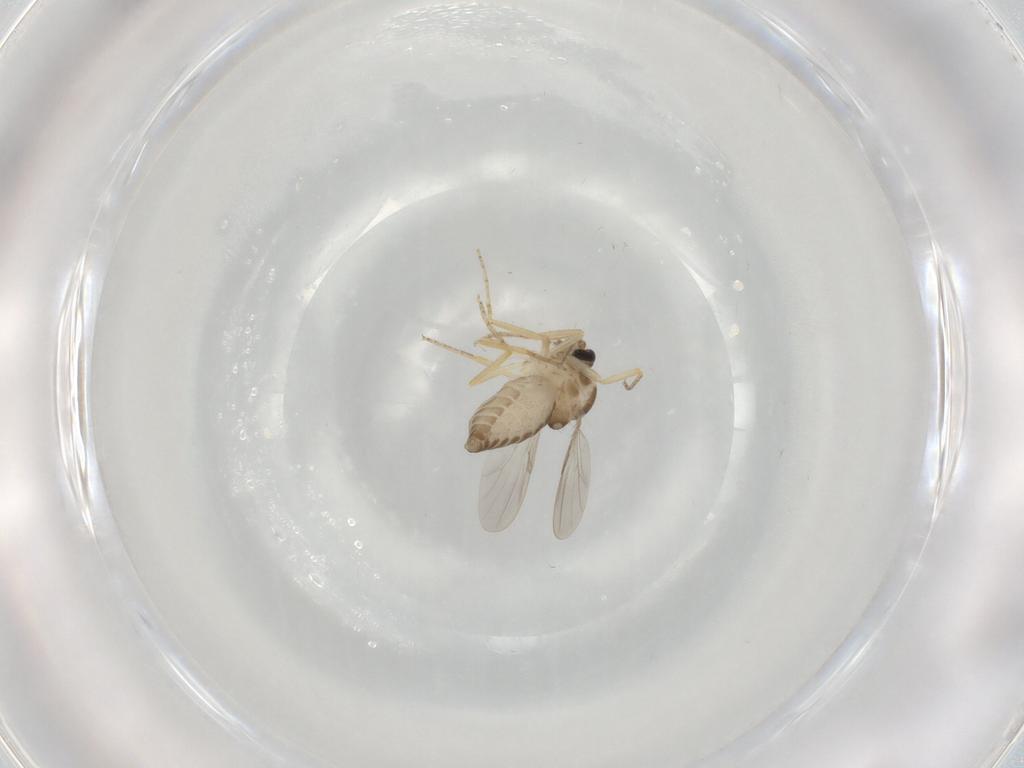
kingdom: Animalia
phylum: Arthropoda
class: Insecta
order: Diptera
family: Ceratopogonidae
